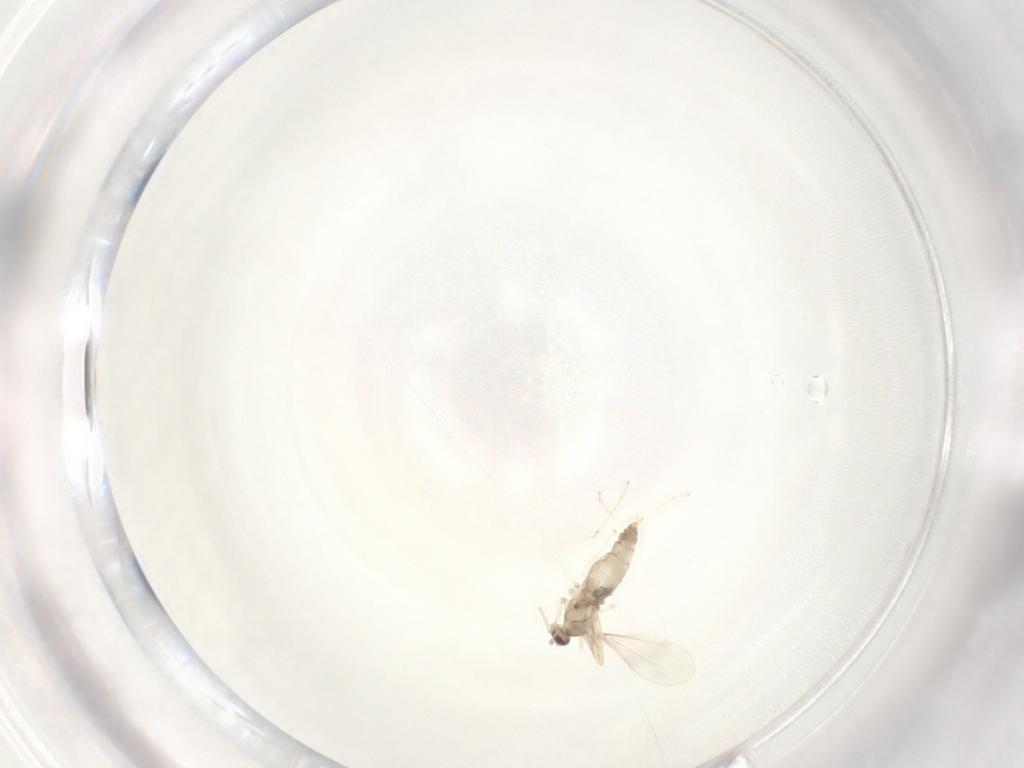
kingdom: Animalia
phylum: Arthropoda
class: Insecta
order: Diptera
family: Cecidomyiidae
